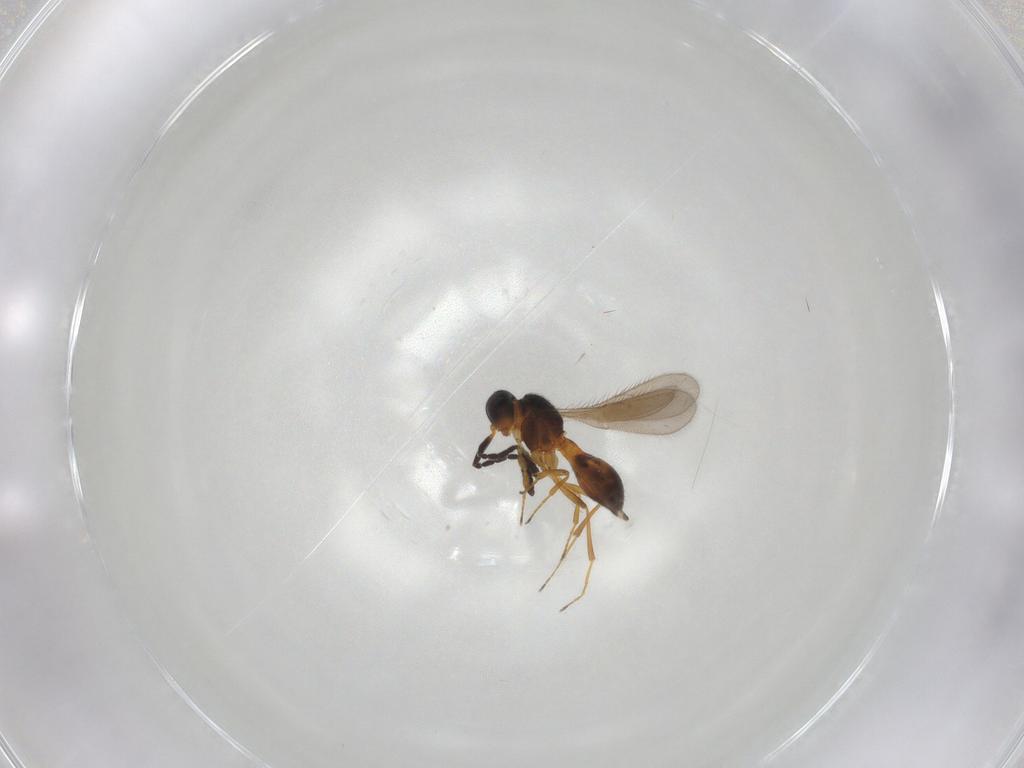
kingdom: Animalia
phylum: Arthropoda
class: Insecta
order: Hymenoptera
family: Scelionidae
